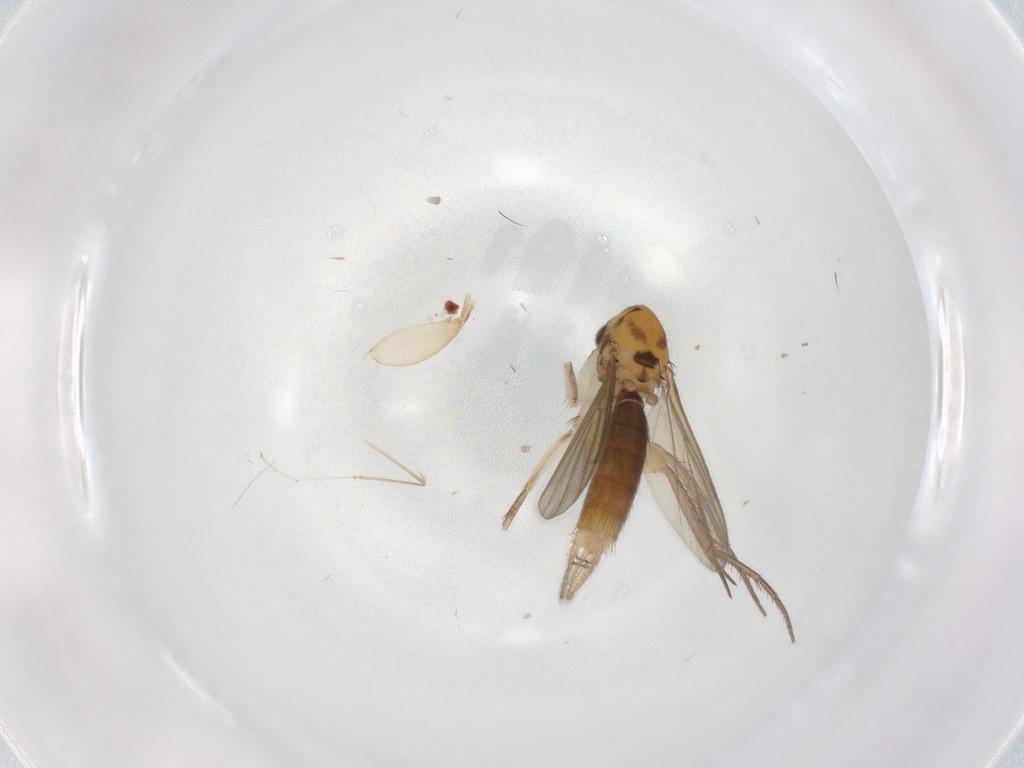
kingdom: Animalia
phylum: Arthropoda
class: Insecta
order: Diptera
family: Mycetophilidae
